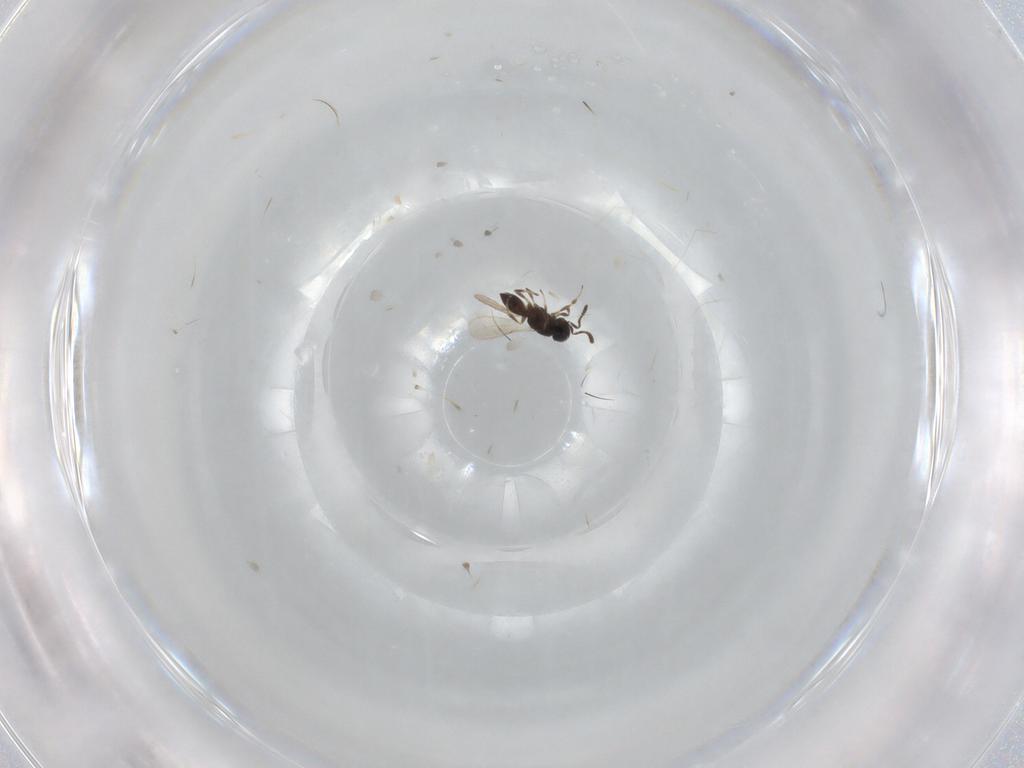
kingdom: Animalia
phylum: Arthropoda
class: Insecta
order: Hymenoptera
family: Scelionidae
